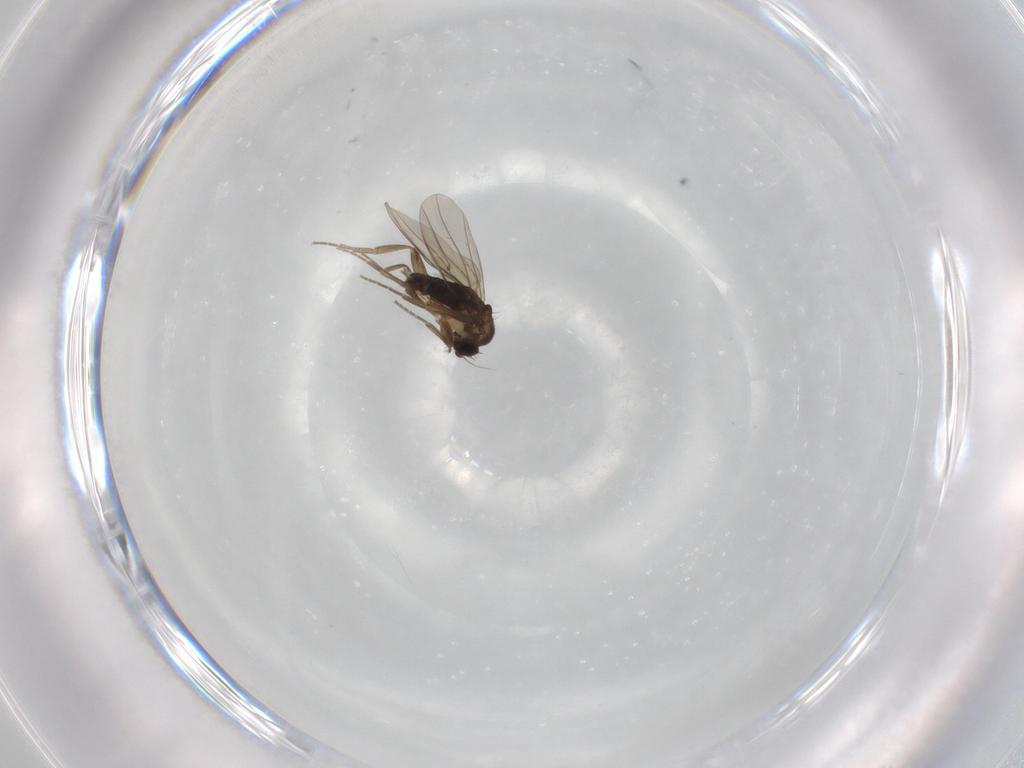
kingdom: Animalia
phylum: Arthropoda
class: Insecta
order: Diptera
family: Phoridae
